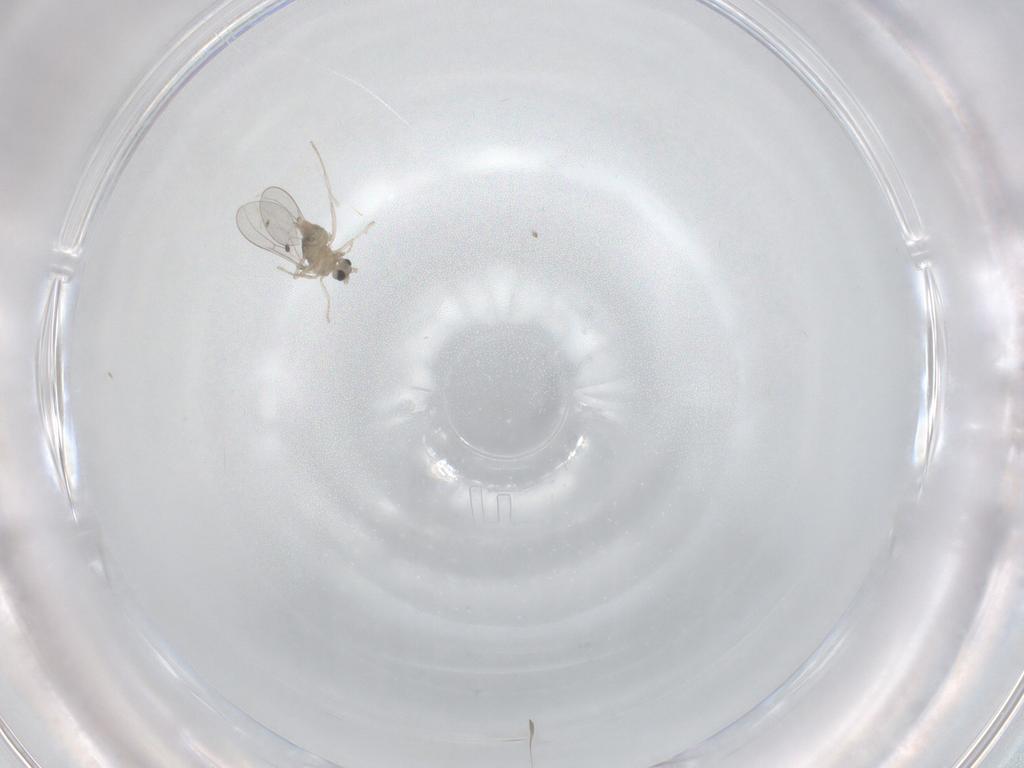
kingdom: Animalia
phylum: Arthropoda
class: Insecta
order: Diptera
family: Cecidomyiidae
